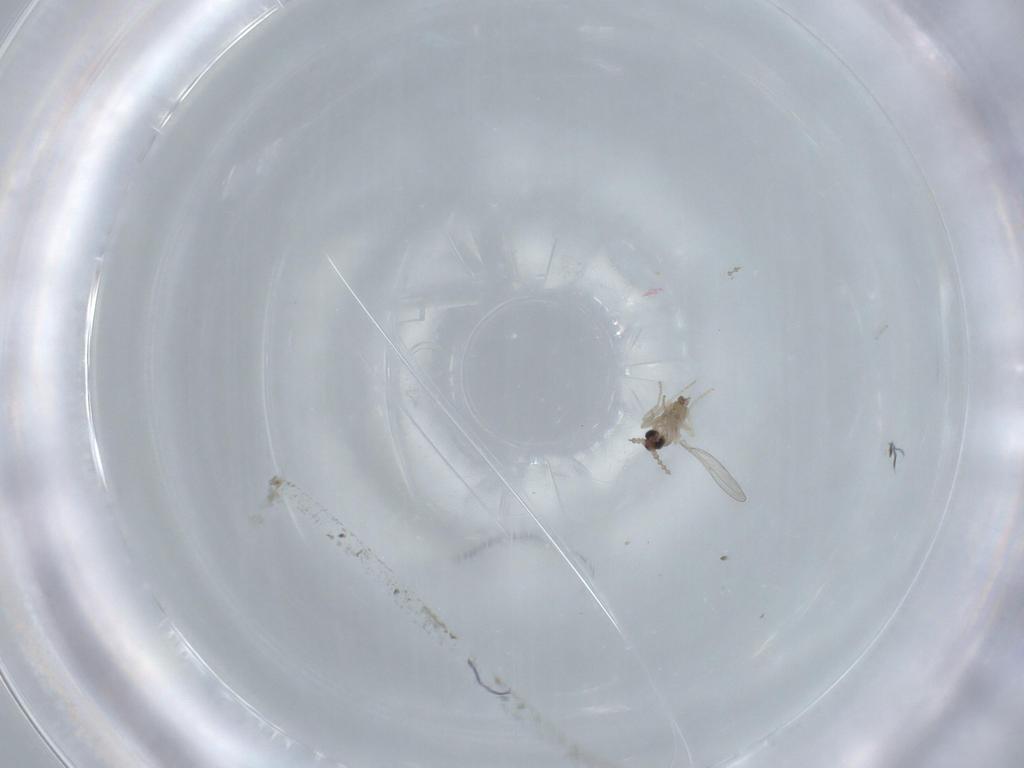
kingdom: Animalia
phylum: Arthropoda
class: Insecta
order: Diptera
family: Cecidomyiidae
